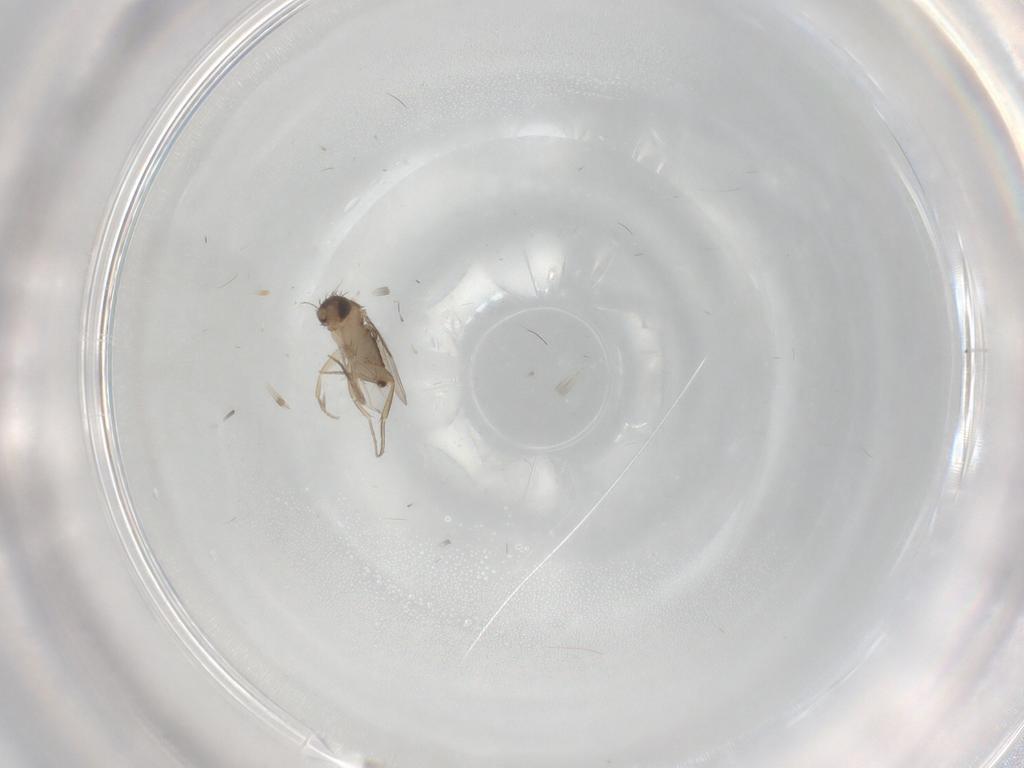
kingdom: Animalia
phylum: Arthropoda
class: Insecta
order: Diptera
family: Phoridae
